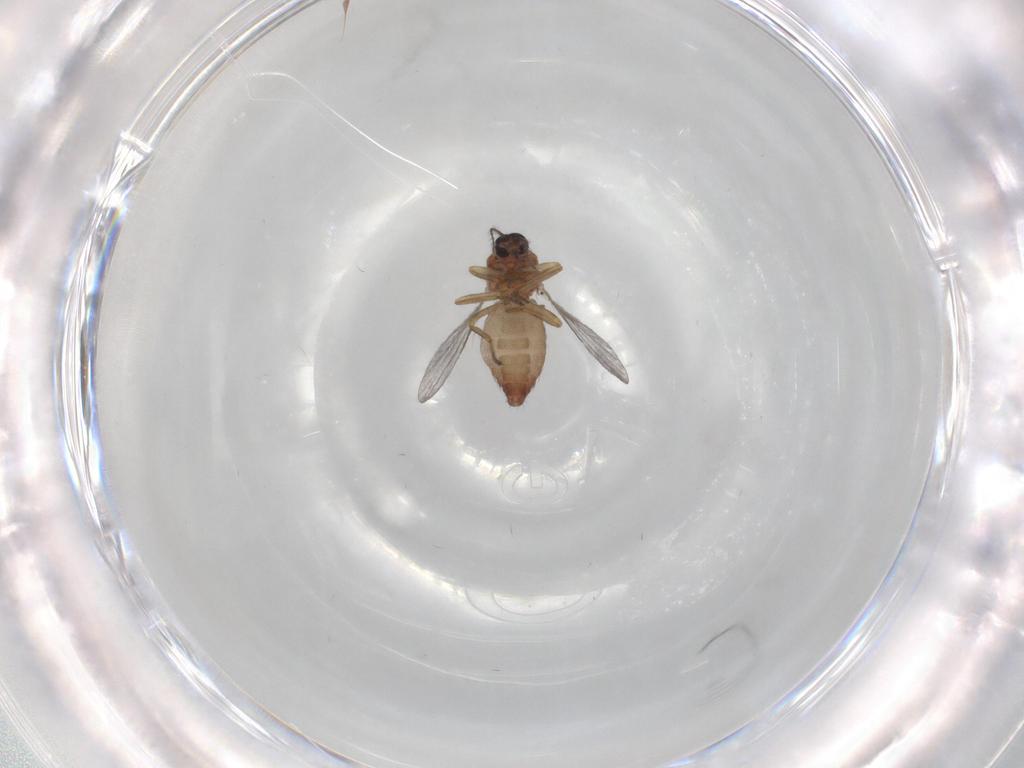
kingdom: Animalia
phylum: Arthropoda
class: Insecta
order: Diptera
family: Ceratopogonidae
